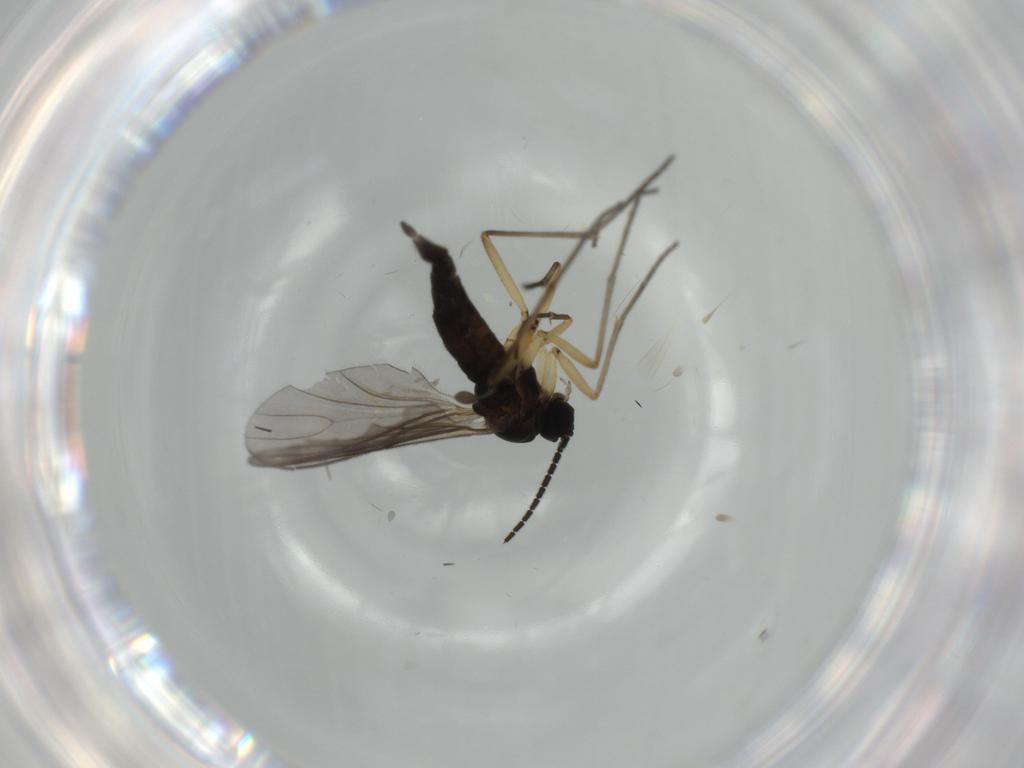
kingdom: Animalia
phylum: Arthropoda
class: Insecta
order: Diptera
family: Sciaridae
